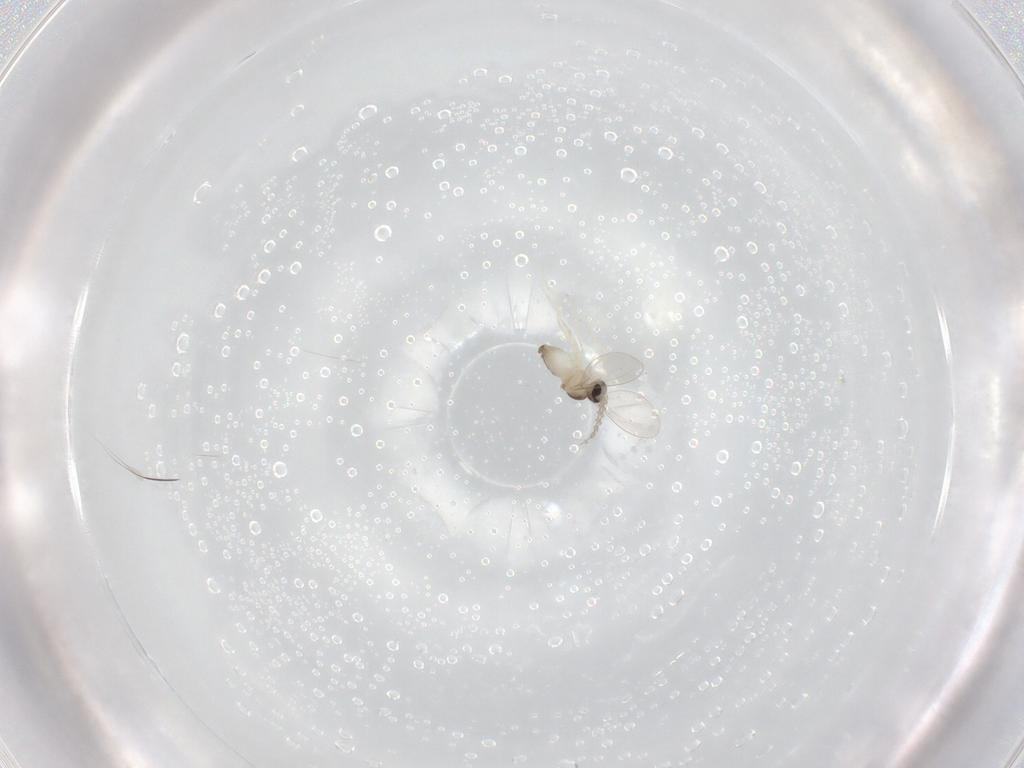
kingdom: Animalia
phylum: Arthropoda
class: Insecta
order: Diptera
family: Cecidomyiidae
